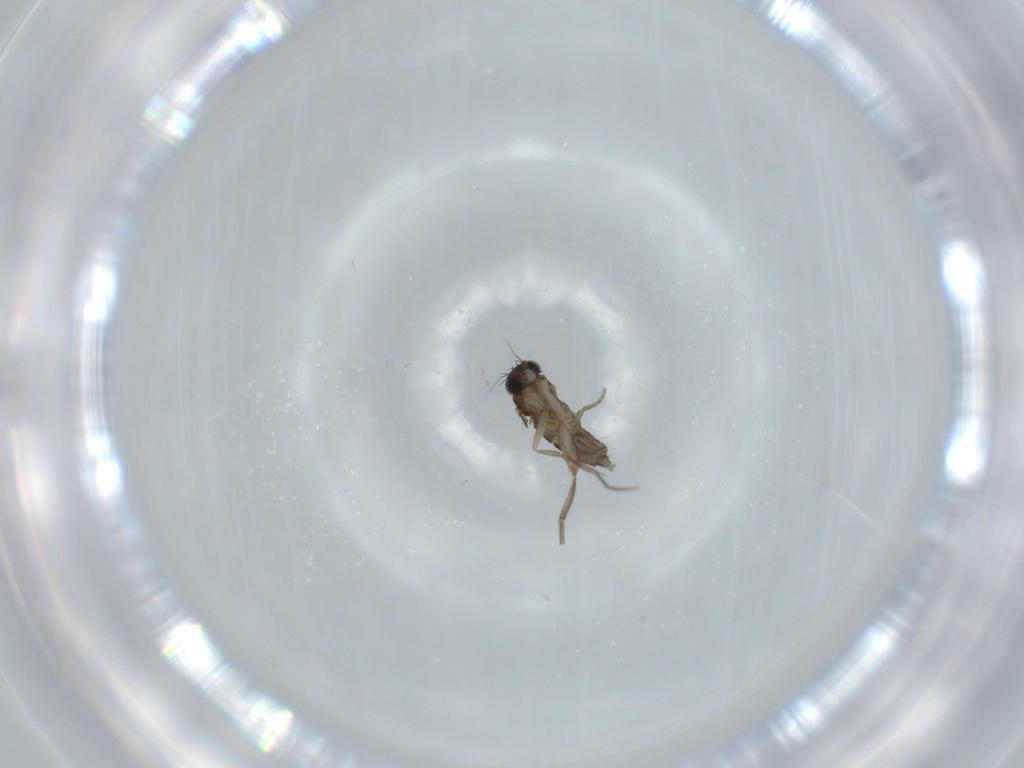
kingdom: Animalia
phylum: Arthropoda
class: Insecta
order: Diptera
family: Phoridae
